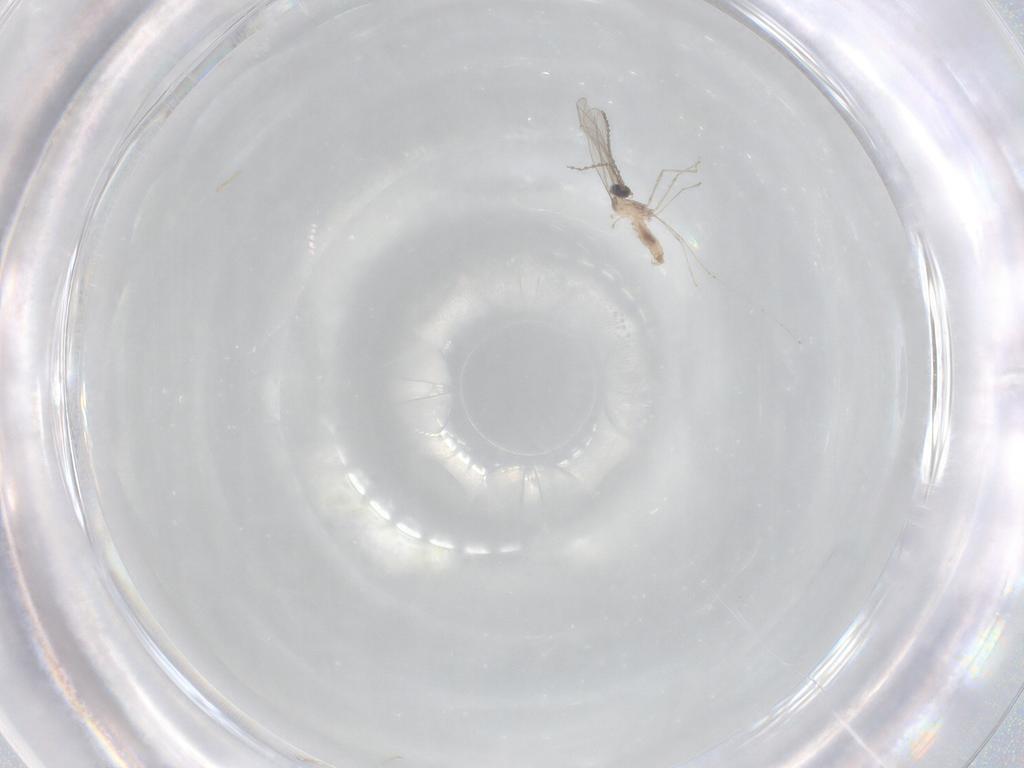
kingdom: Animalia
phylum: Arthropoda
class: Insecta
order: Diptera
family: Cecidomyiidae
